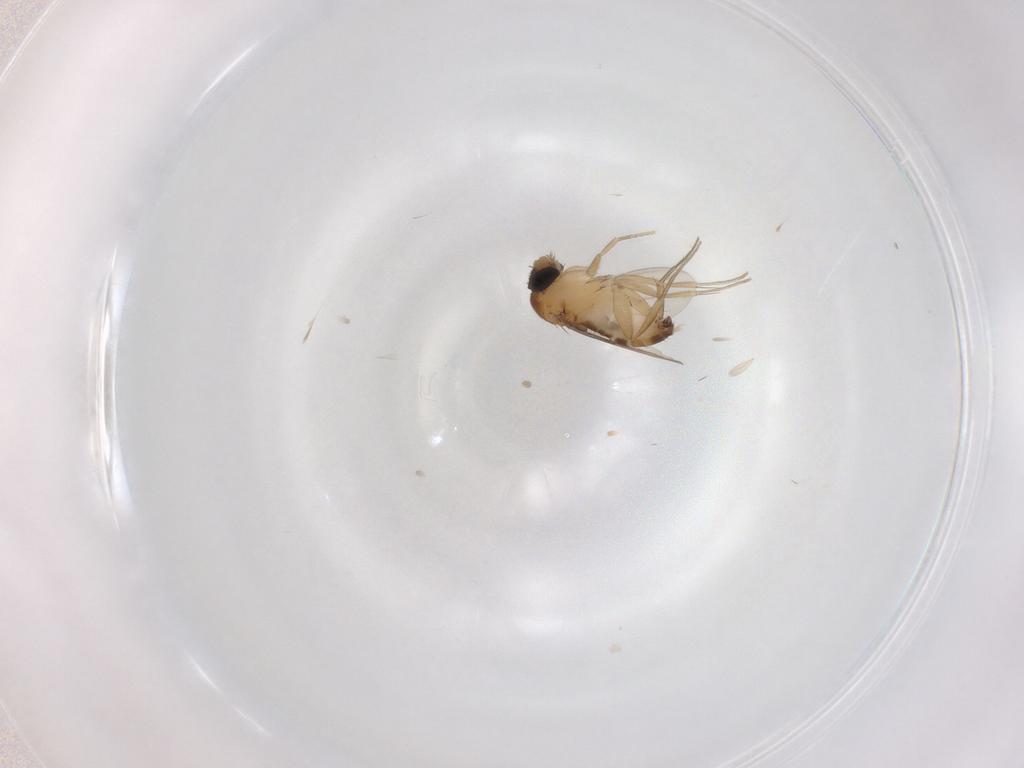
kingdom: Animalia
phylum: Arthropoda
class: Insecta
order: Diptera
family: Phoridae
